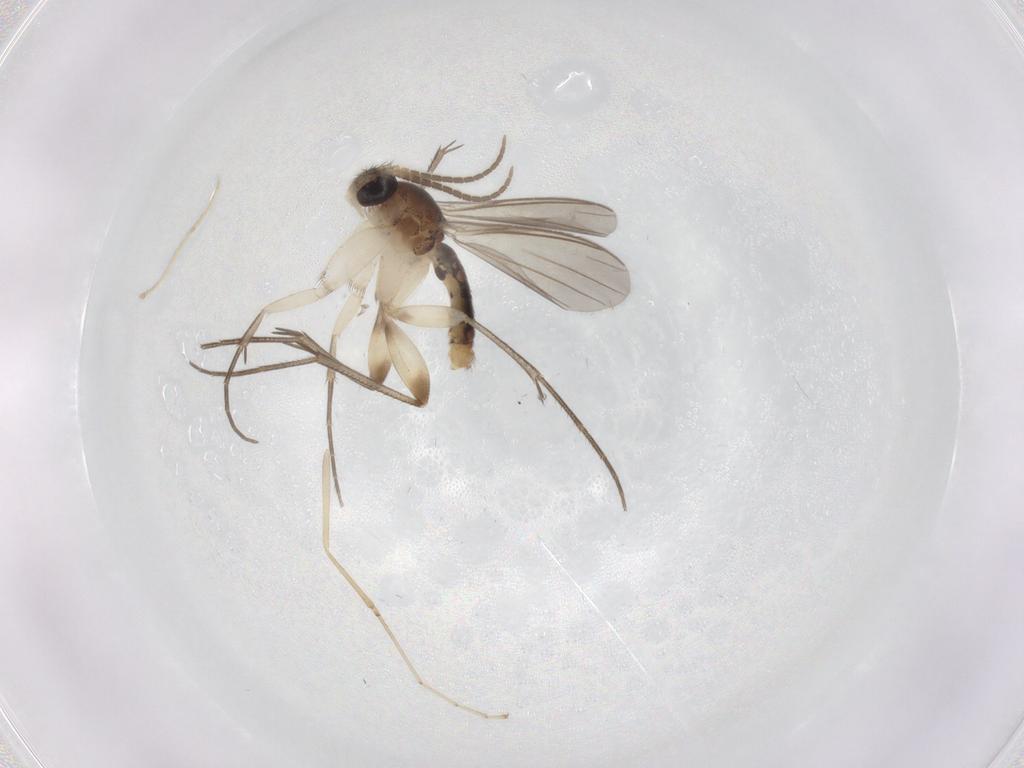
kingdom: Animalia
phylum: Arthropoda
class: Insecta
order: Diptera
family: Mycetophilidae
